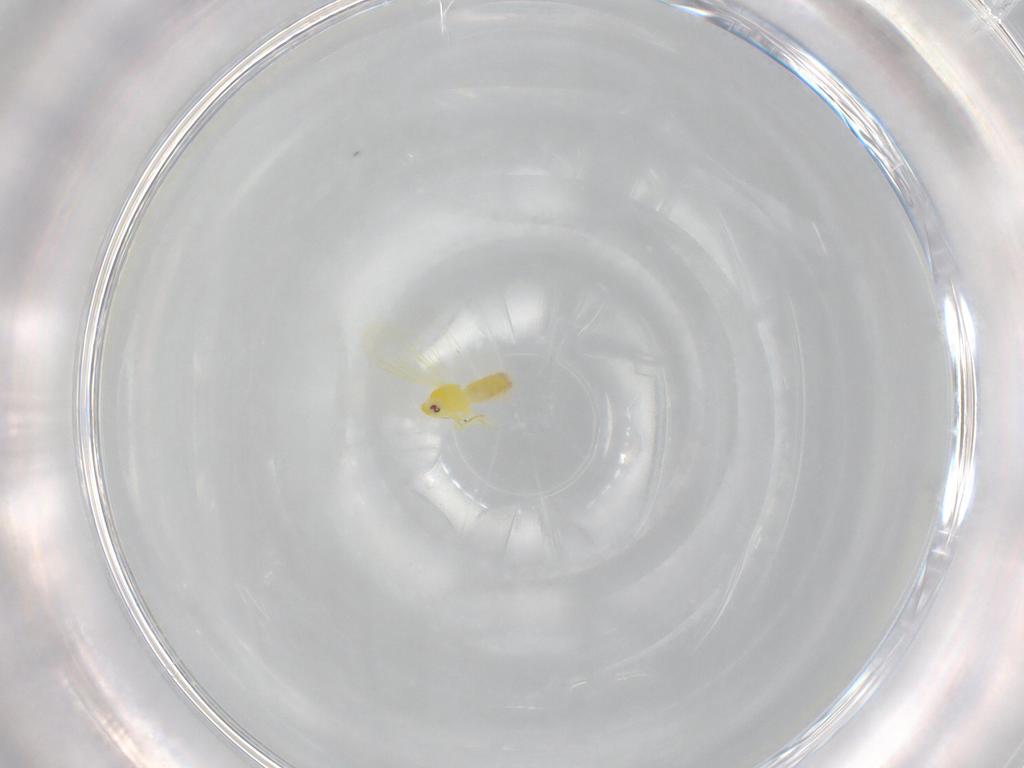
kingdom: Animalia
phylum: Arthropoda
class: Insecta
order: Hemiptera
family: Aleyrodidae
